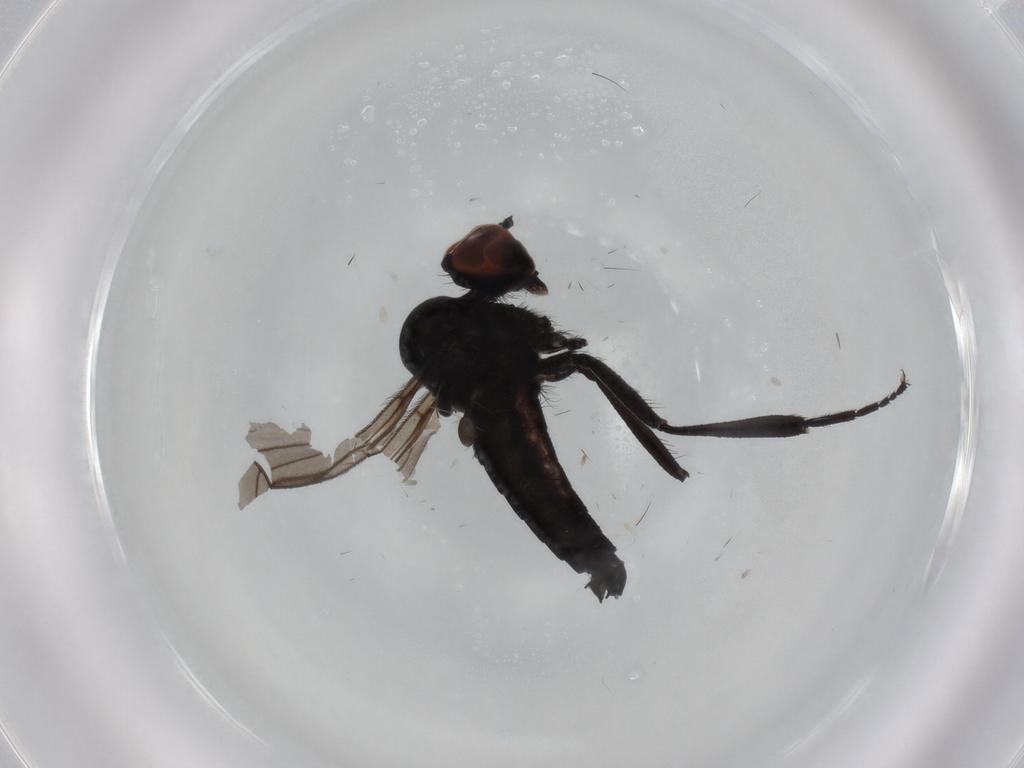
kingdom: Animalia
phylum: Arthropoda
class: Insecta
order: Diptera
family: Hybotidae
